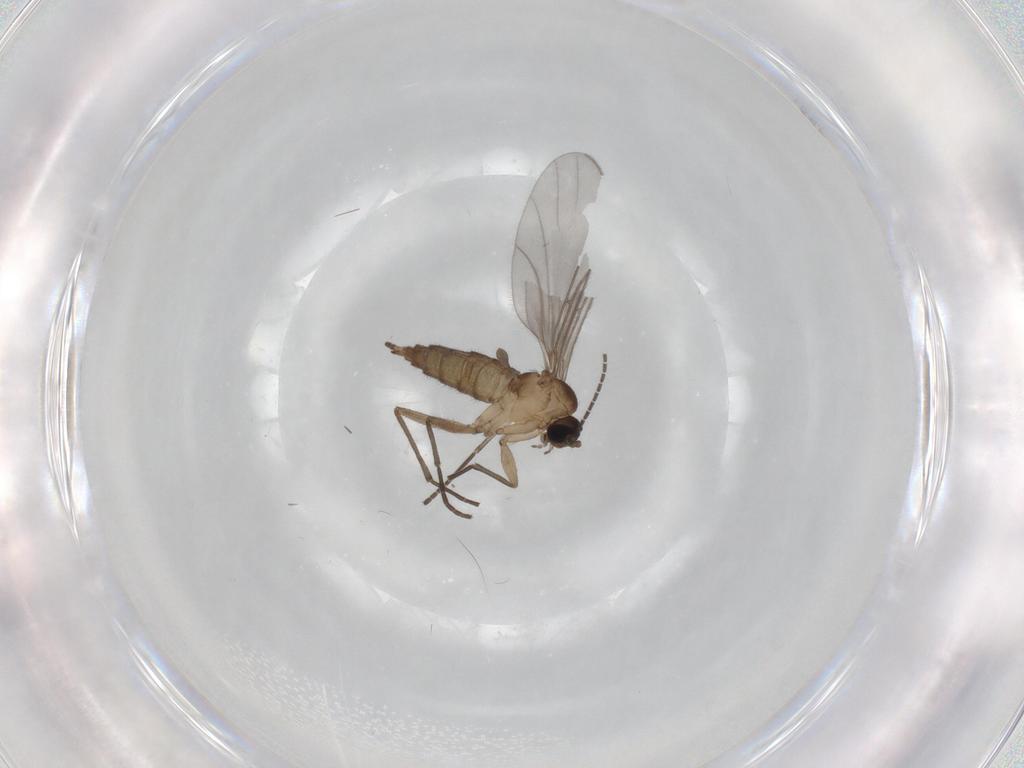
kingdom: Animalia
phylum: Arthropoda
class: Insecta
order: Diptera
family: Sciaridae
